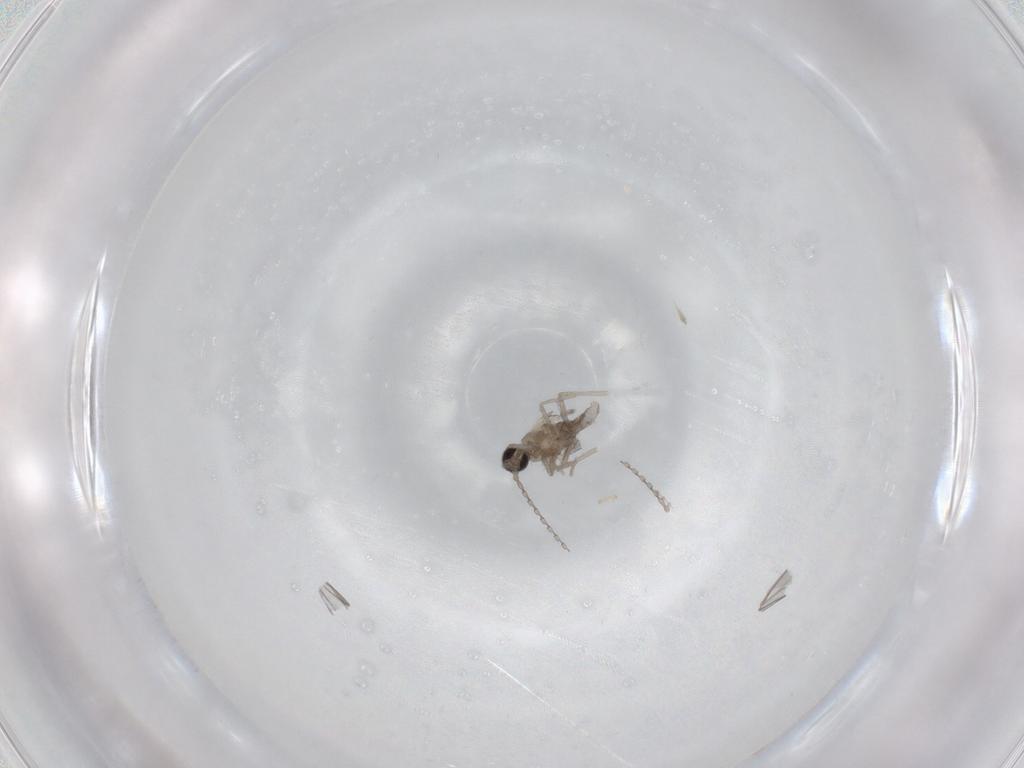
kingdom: Animalia
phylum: Arthropoda
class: Insecta
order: Diptera
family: Cecidomyiidae
